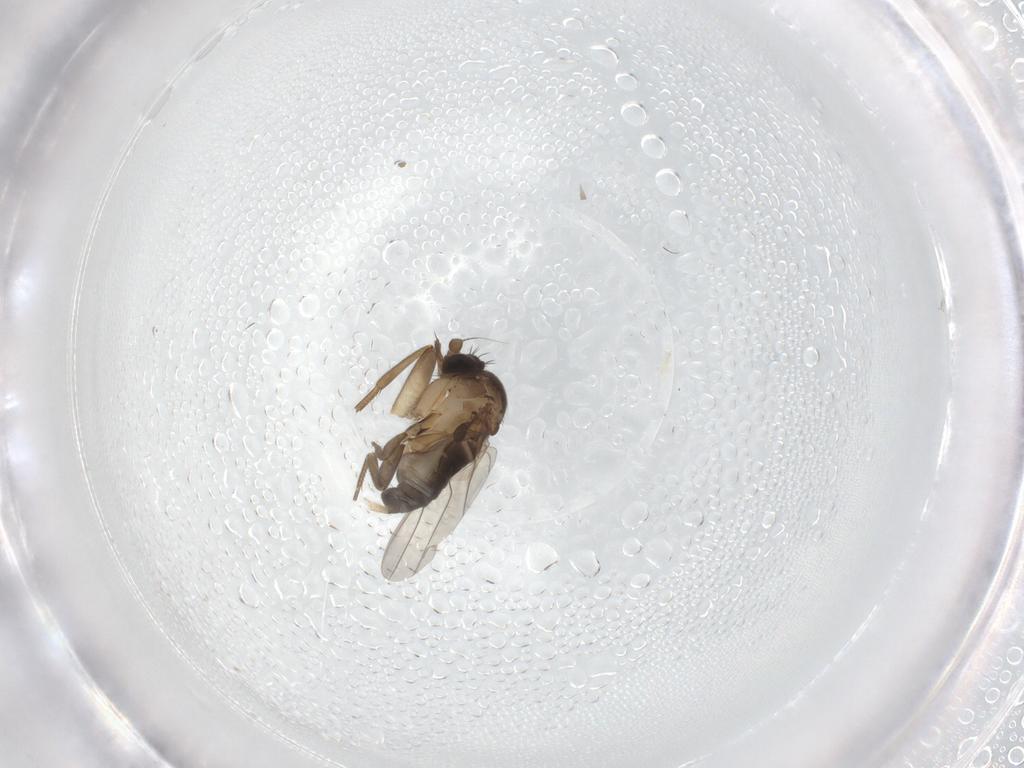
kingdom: Animalia
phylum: Arthropoda
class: Insecta
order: Diptera
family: Phoridae
